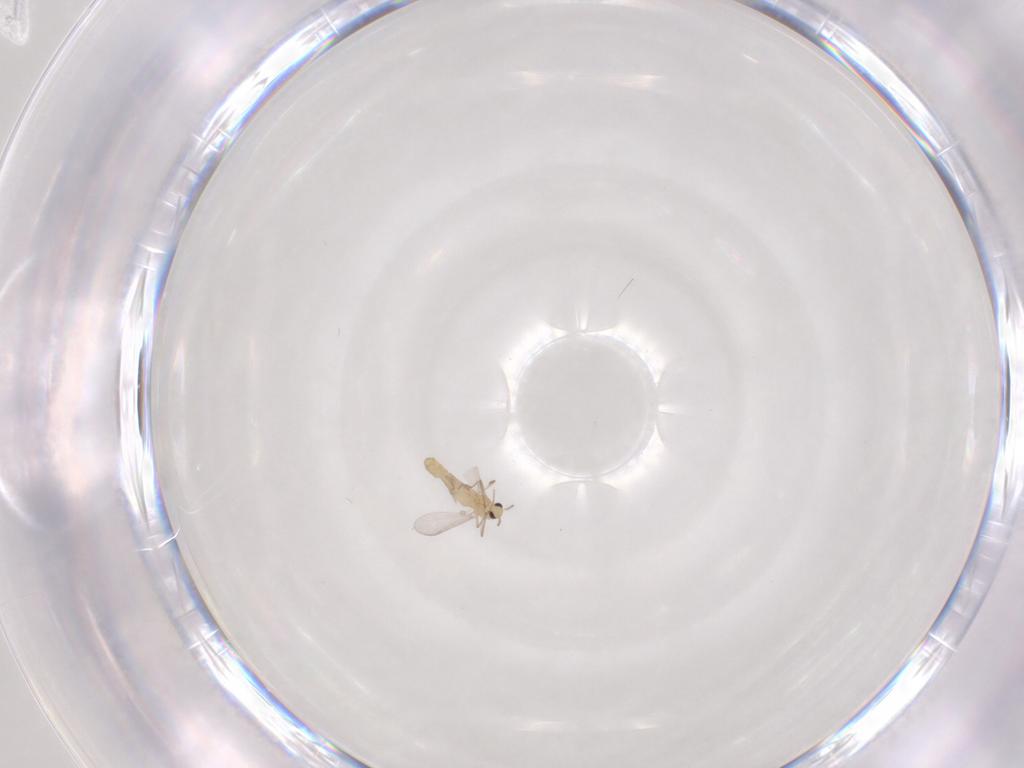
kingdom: Animalia
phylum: Arthropoda
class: Insecta
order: Diptera
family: Chironomidae
